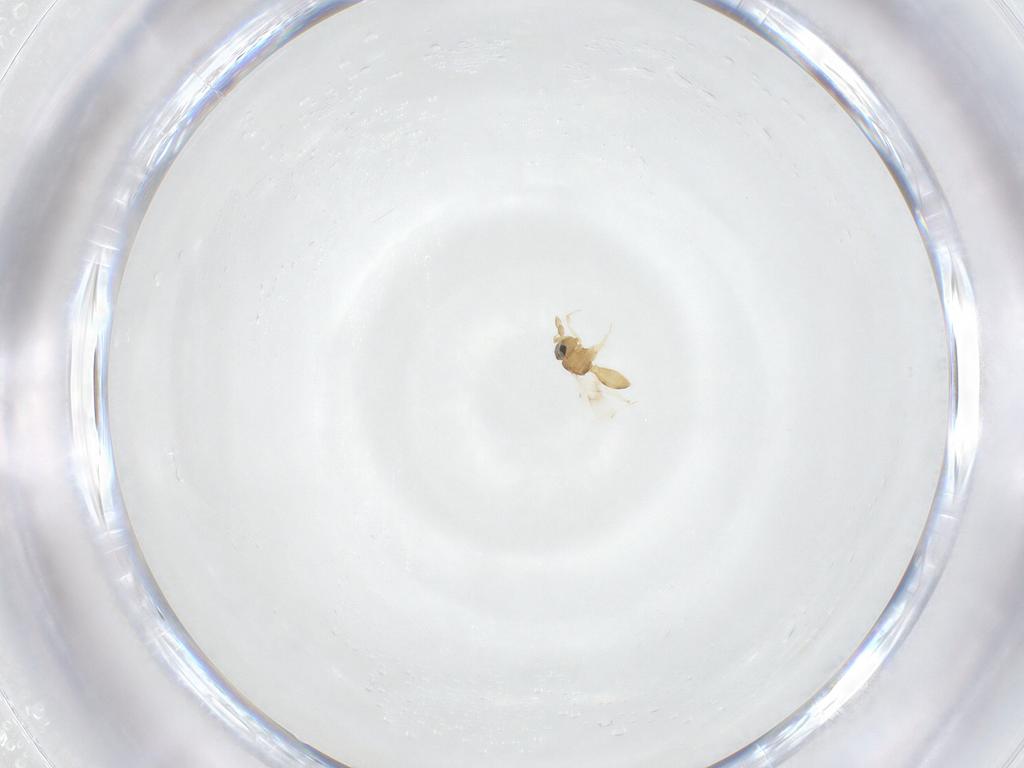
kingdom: Animalia
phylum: Arthropoda
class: Insecta
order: Hymenoptera
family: Scelionidae
